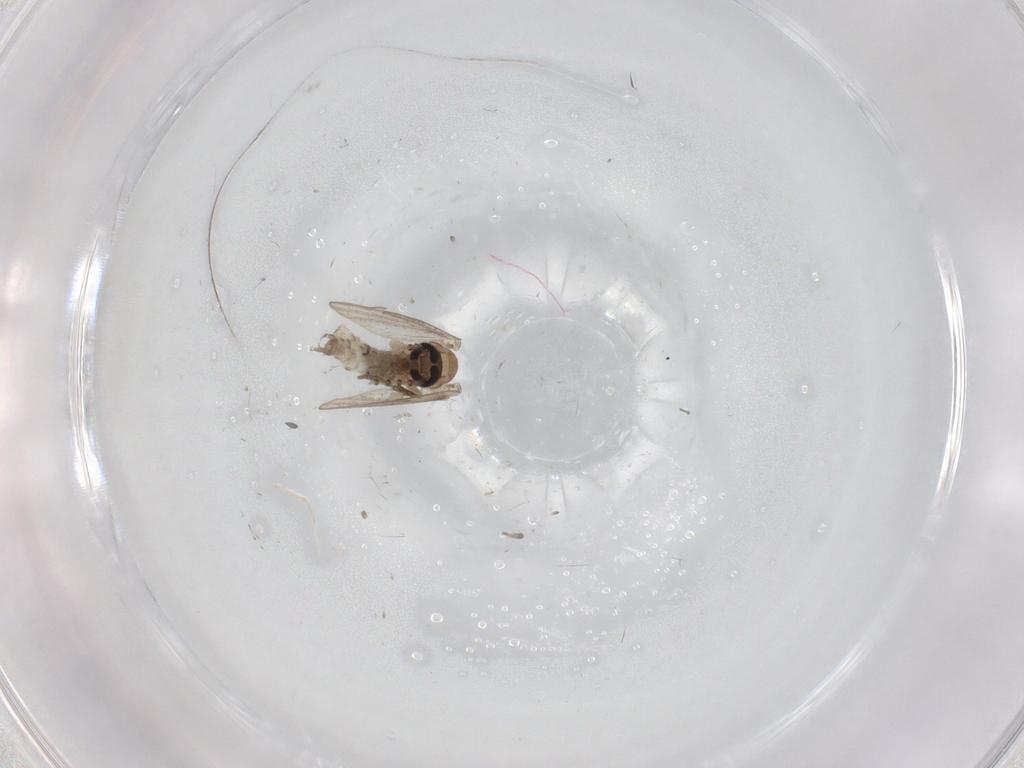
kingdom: Animalia
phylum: Arthropoda
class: Insecta
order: Diptera
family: Psychodidae
